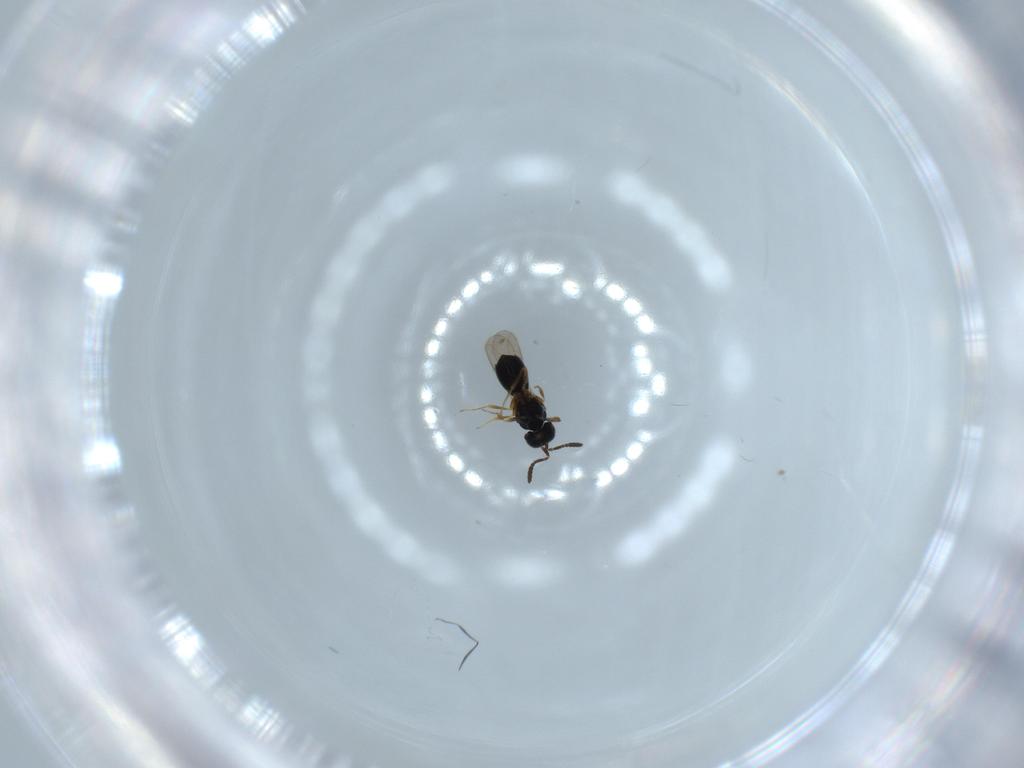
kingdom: Animalia
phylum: Arthropoda
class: Insecta
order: Hymenoptera
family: Scelionidae
